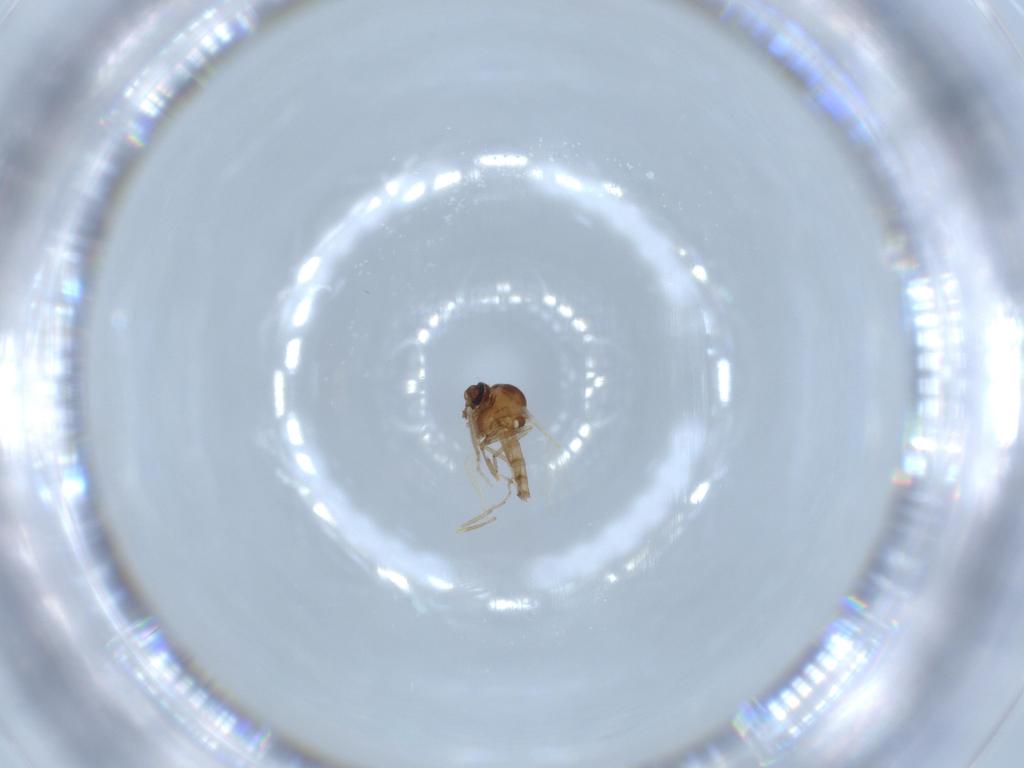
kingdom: Animalia
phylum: Arthropoda
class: Insecta
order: Diptera
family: Ceratopogonidae
